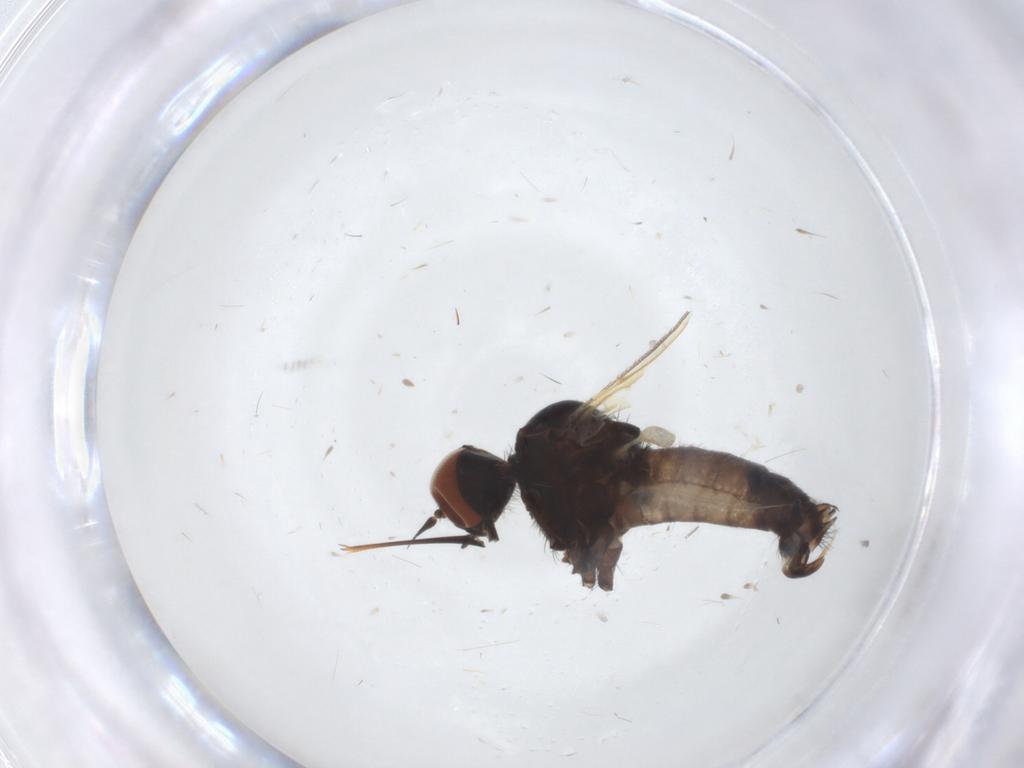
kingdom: Animalia
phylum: Arthropoda
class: Insecta
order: Diptera
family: Empididae
